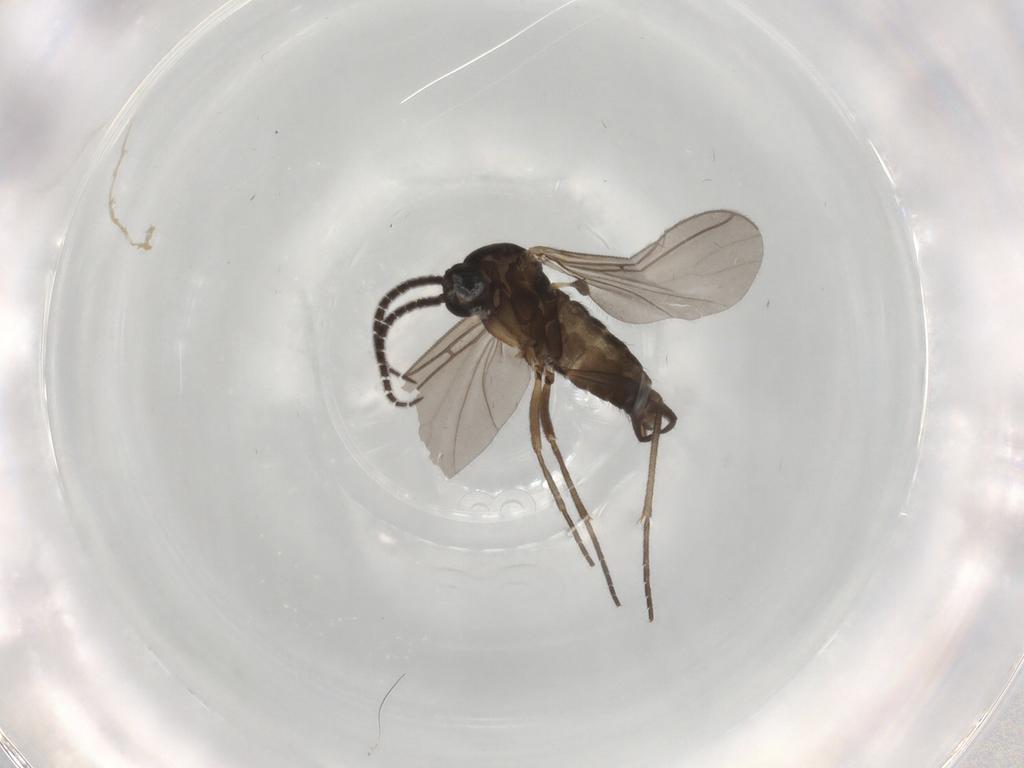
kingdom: Animalia
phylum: Arthropoda
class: Insecta
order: Diptera
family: Sciaridae
